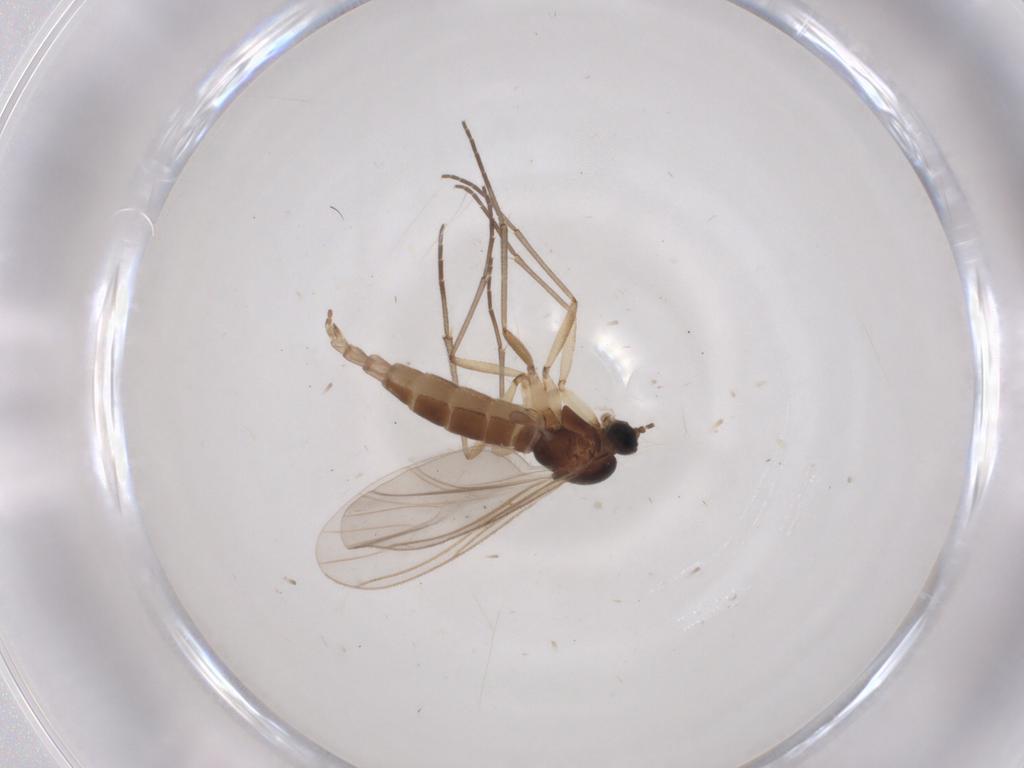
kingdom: Animalia
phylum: Arthropoda
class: Insecta
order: Diptera
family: Sciaridae
